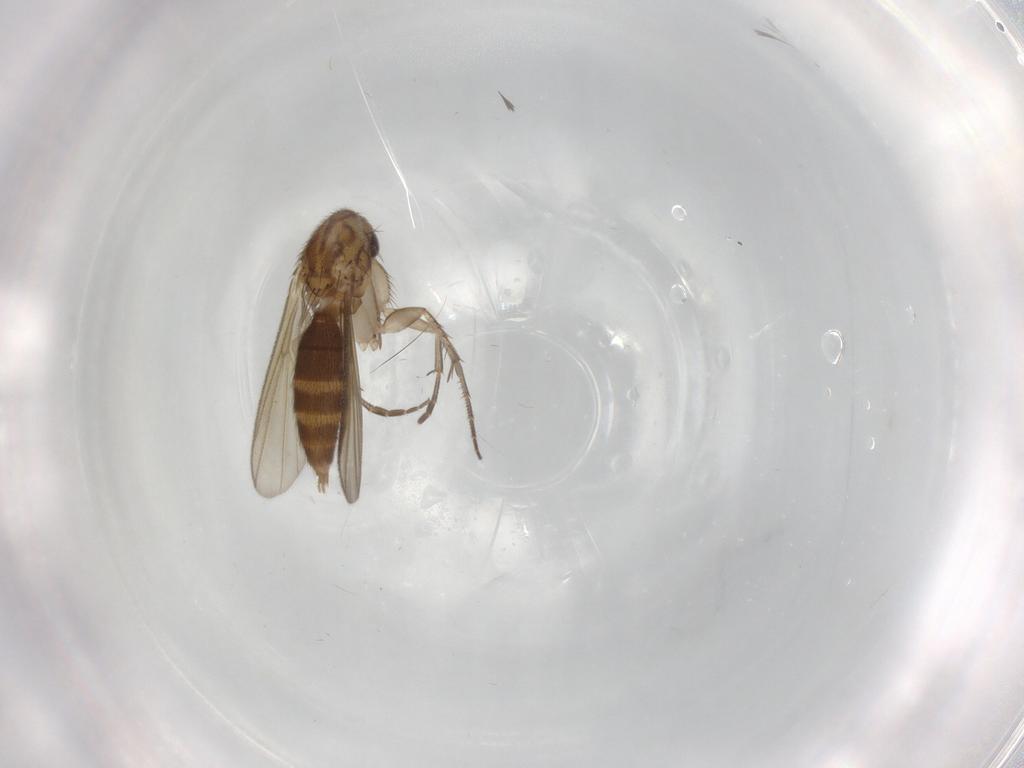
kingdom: Animalia
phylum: Arthropoda
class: Insecta
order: Diptera
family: Mycetophilidae
